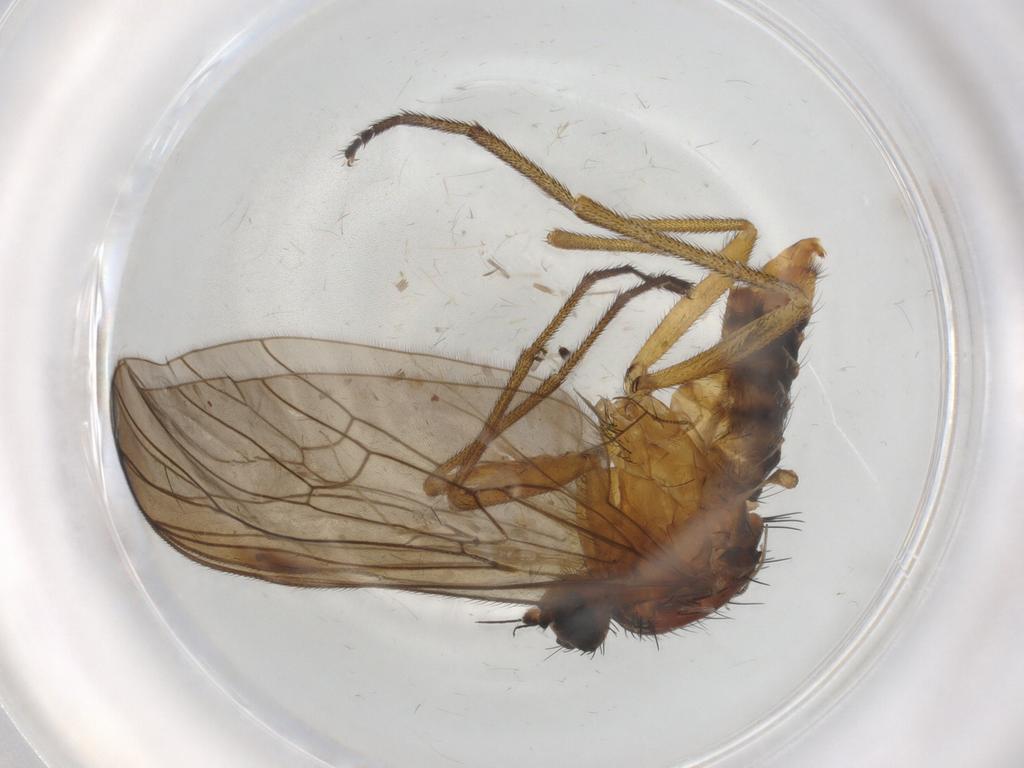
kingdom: Animalia
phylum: Arthropoda
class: Insecta
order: Diptera
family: Brachystomatidae
